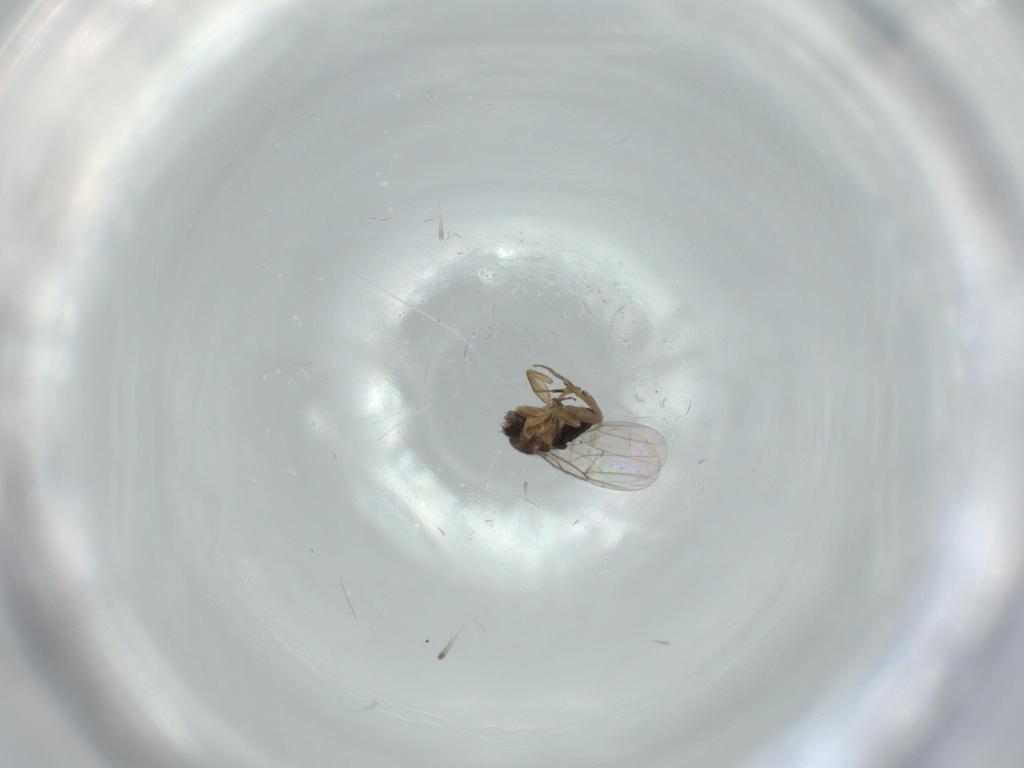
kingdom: Animalia
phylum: Arthropoda
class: Insecta
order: Diptera
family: Phoridae
